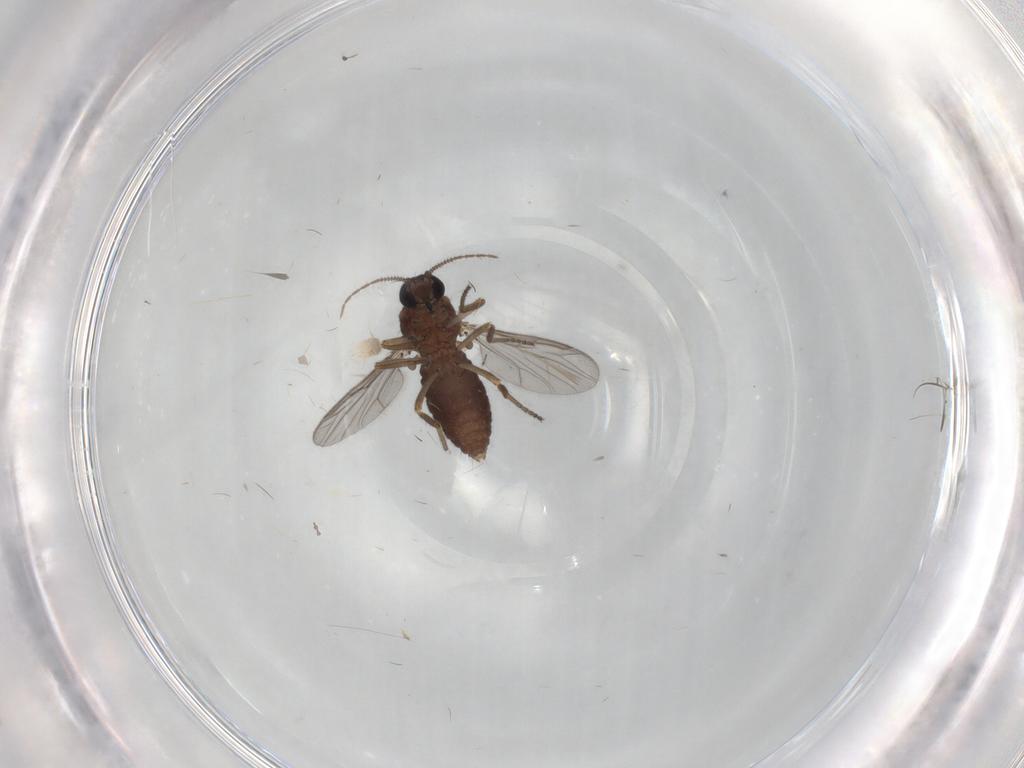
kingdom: Animalia
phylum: Arthropoda
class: Insecta
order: Diptera
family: Ceratopogonidae
